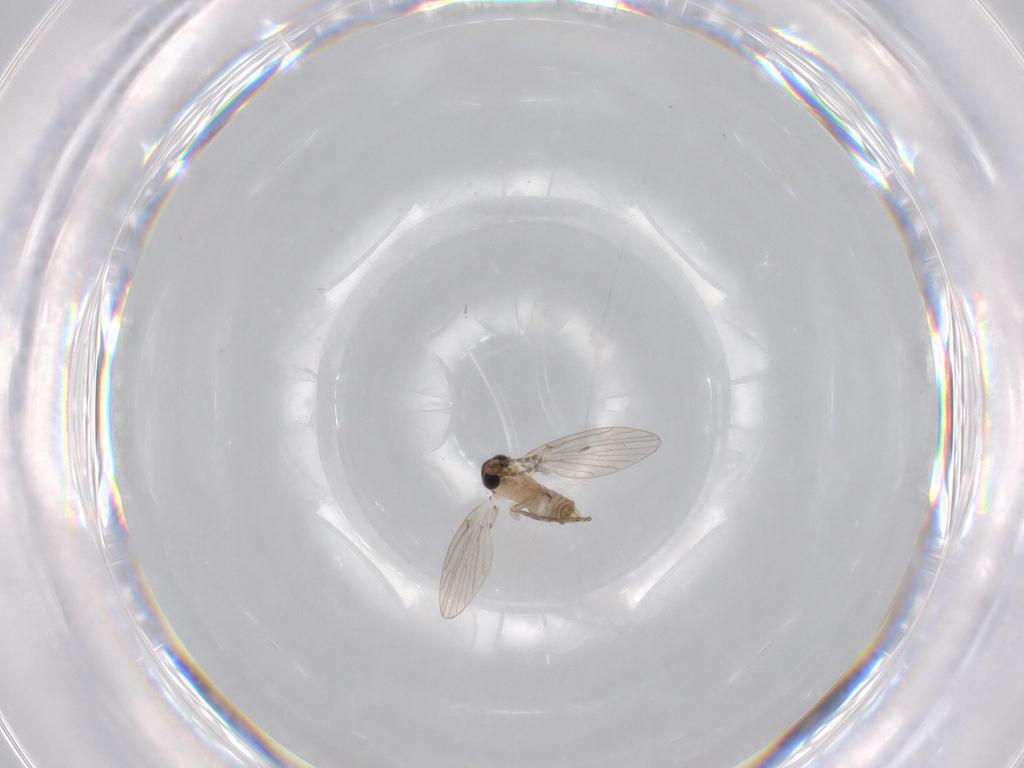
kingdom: Animalia
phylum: Arthropoda
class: Insecta
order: Diptera
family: Psychodidae
